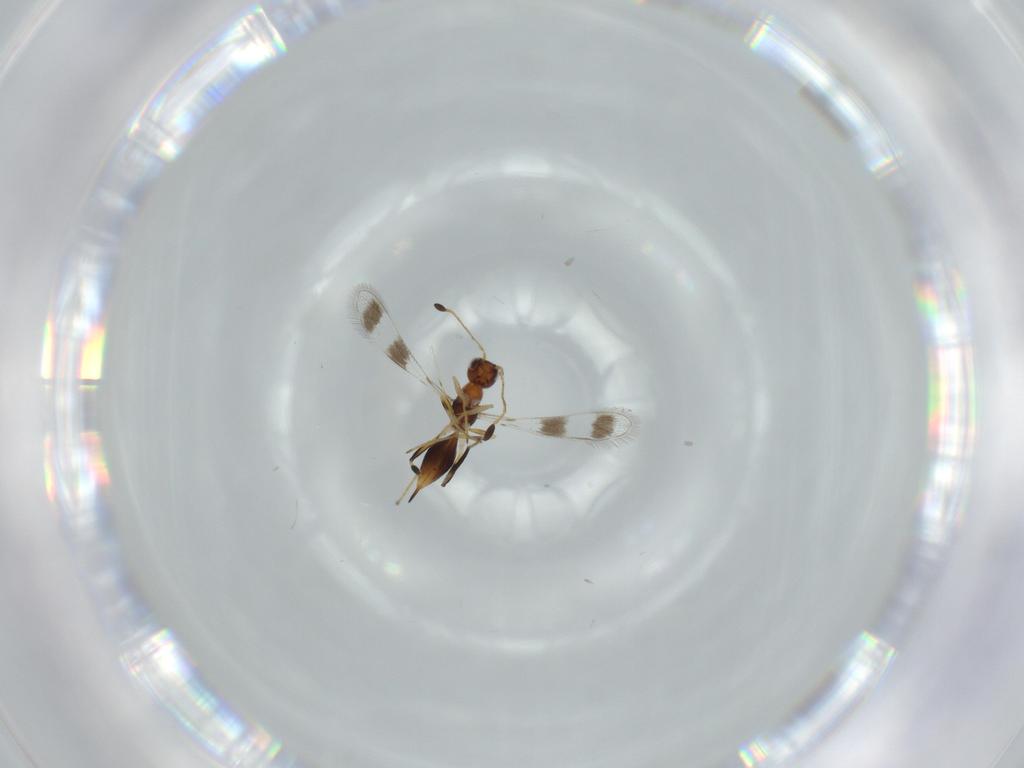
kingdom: Animalia
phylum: Arthropoda
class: Insecta
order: Hymenoptera
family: Mymaridae
